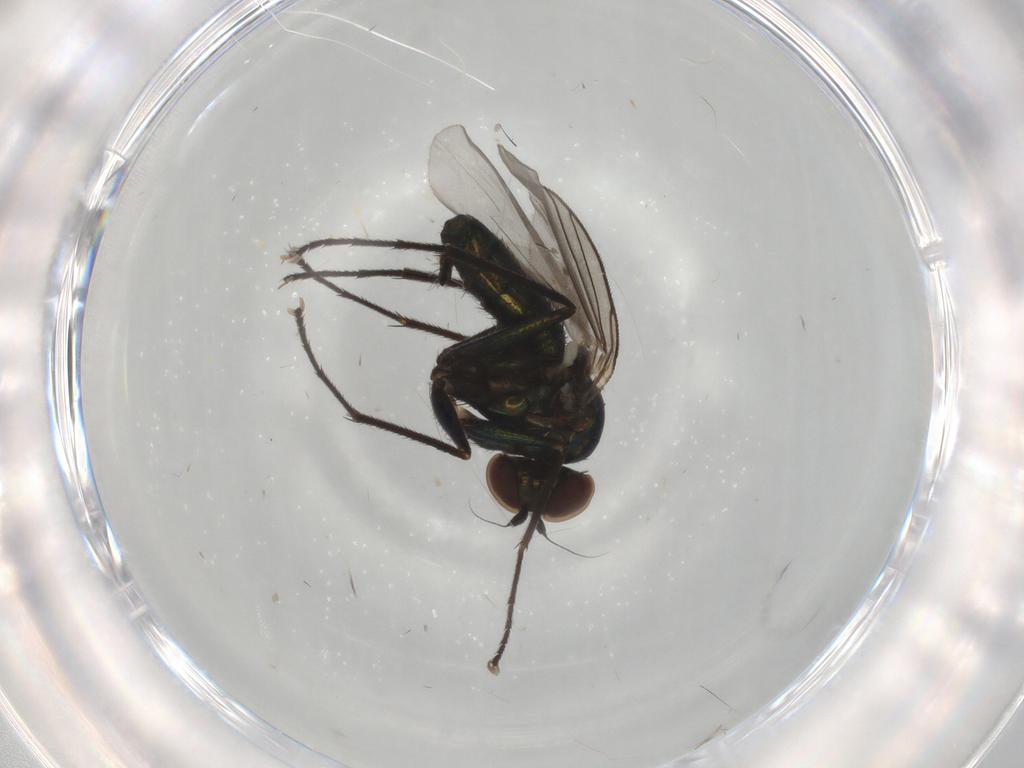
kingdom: Animalia
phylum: Arthropoda
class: Insecta
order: Diptera
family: Dolichopodidae
